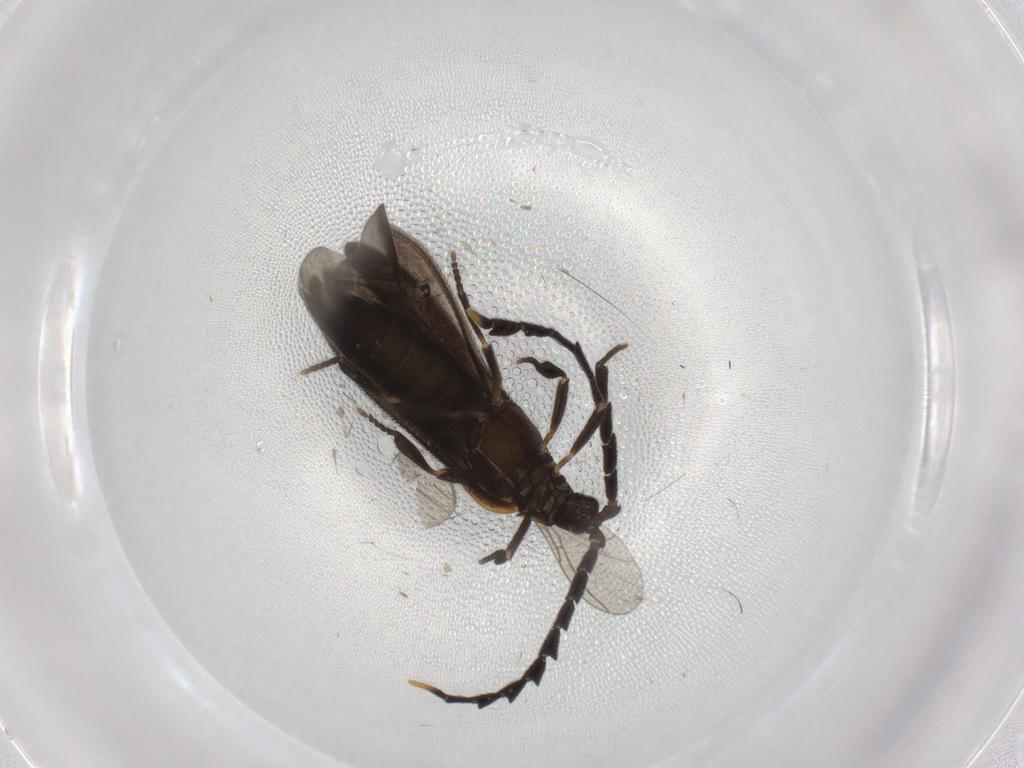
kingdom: Animalia
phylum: Arthropoda
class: Insecta
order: Coleoptera
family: Lycidae
